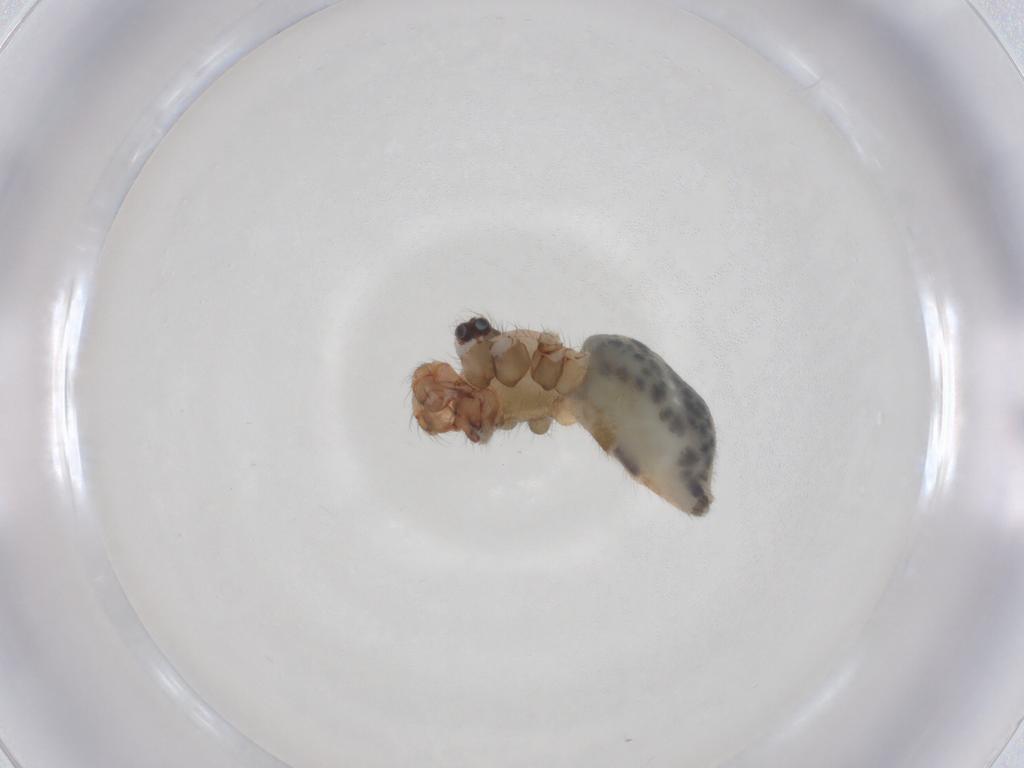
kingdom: Animalia
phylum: Arthropoda
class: Arachnida
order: Araneae
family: Pholcidae
